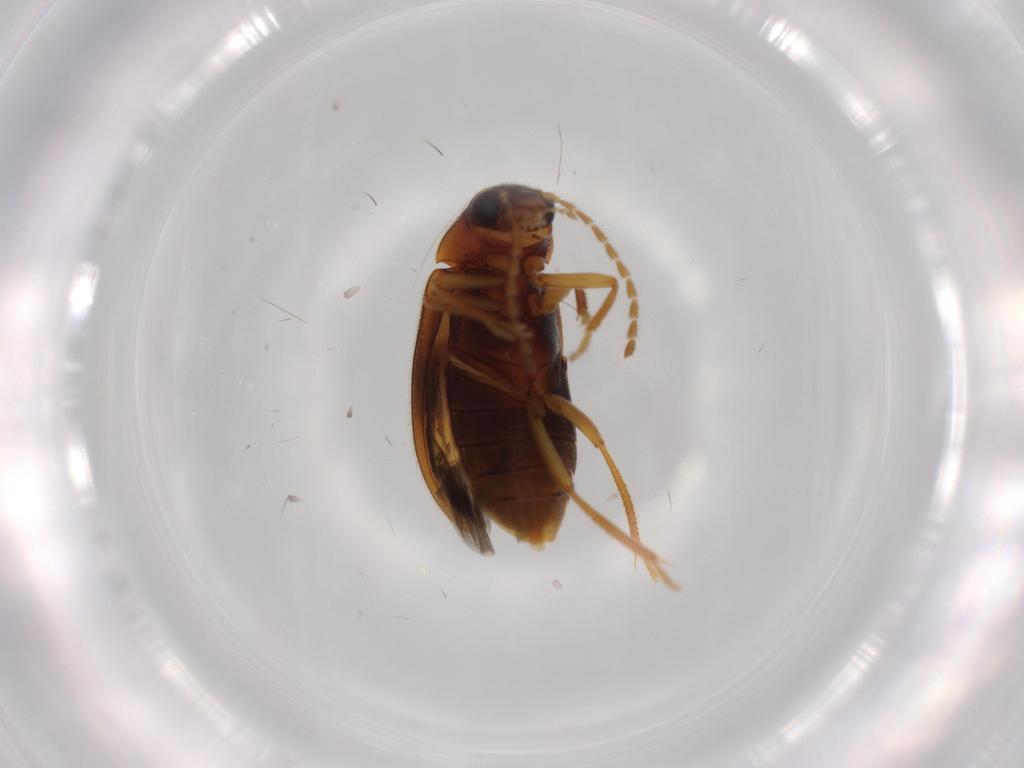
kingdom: Animalia
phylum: Arthropoda
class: Insecta
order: Coleoptera
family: Ptilodactylidae
